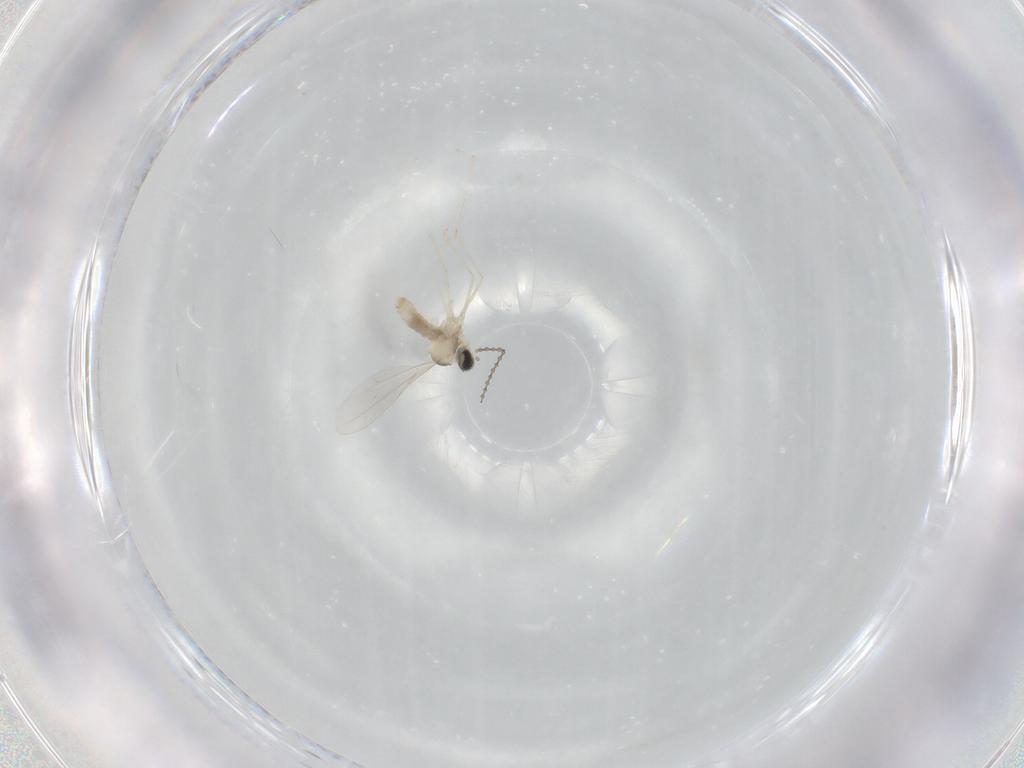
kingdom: Animalia
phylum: Arthropoda
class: Insecta
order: Diptera
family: Cecidomyiidae
